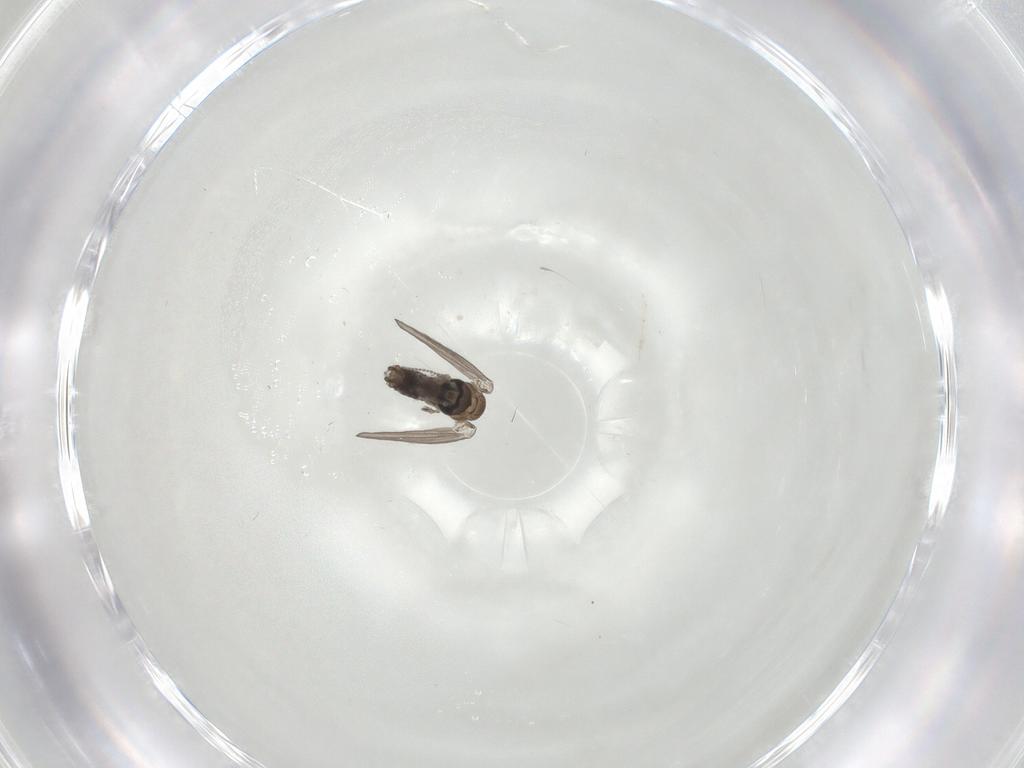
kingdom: Animalia
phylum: Arthropoda
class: Insecta
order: Diptera
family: Psychodidae
